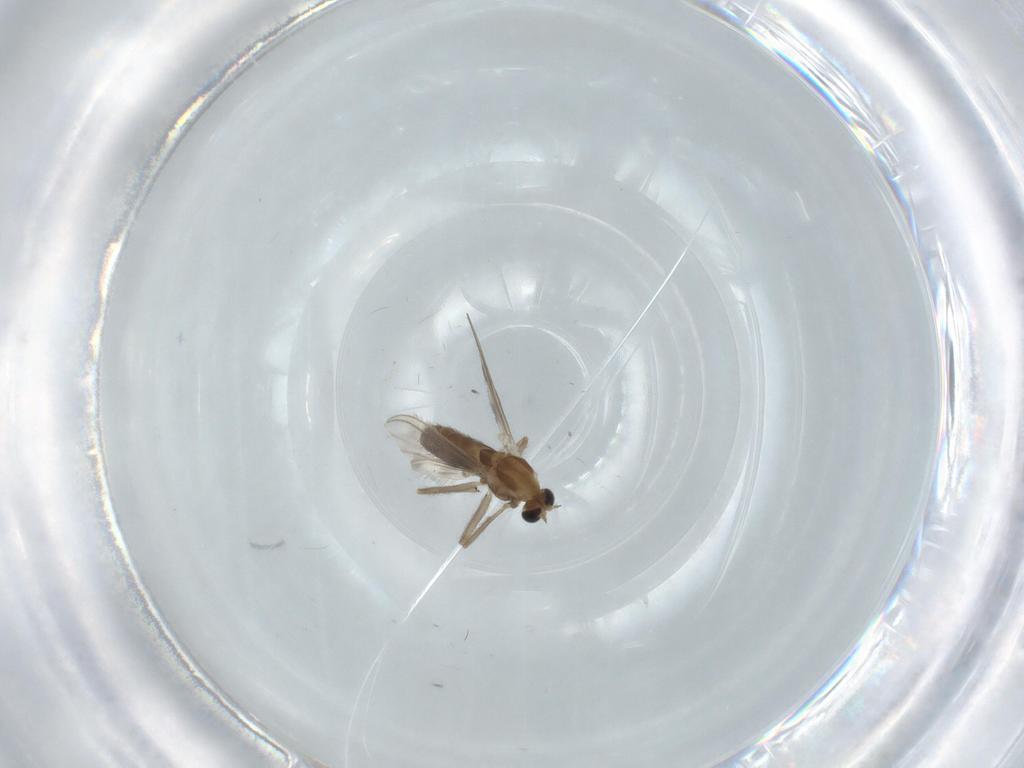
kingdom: Animalia
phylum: Arthropoda
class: Insecta
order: Diptera
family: Chironomidae
